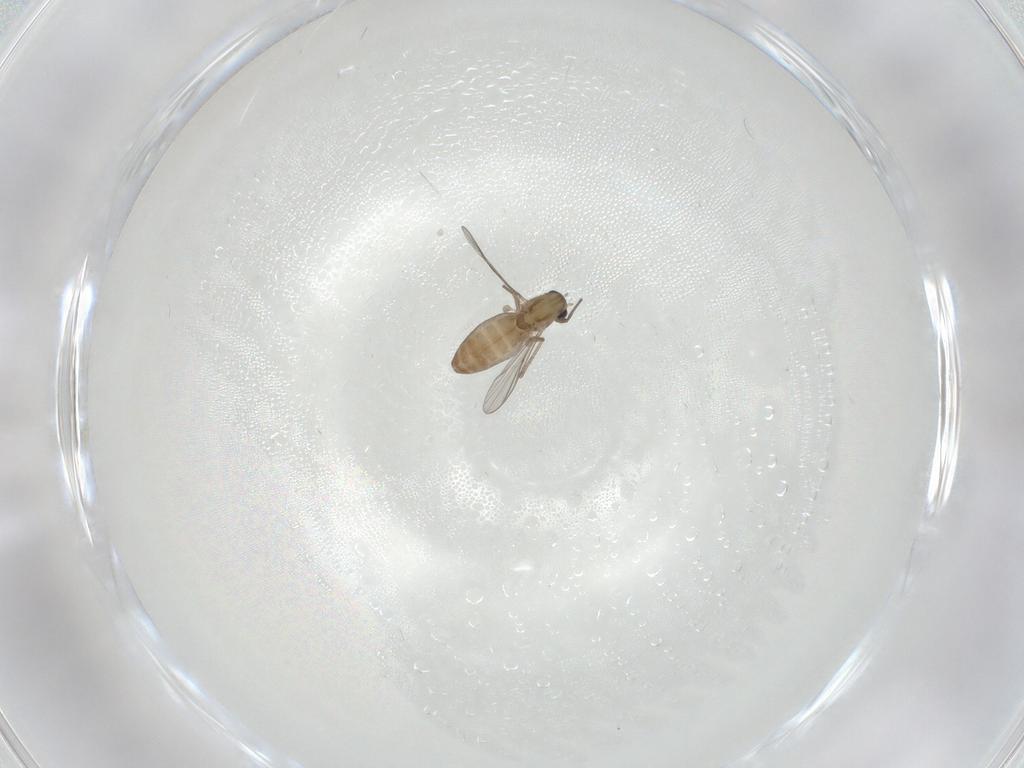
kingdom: Animalia
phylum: Arthropoda
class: Insecta
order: Diptera
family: Chironomidae
